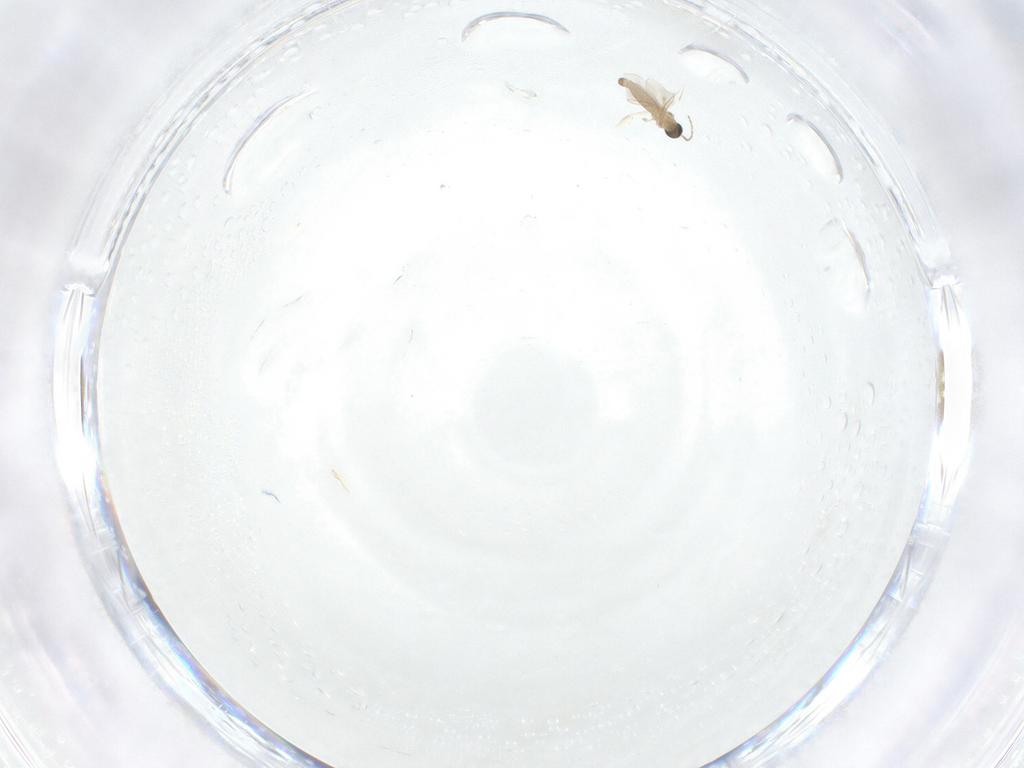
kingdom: Animalia
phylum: Arthropoda
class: Insecta
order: Diptera
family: Cecidomyiidae
